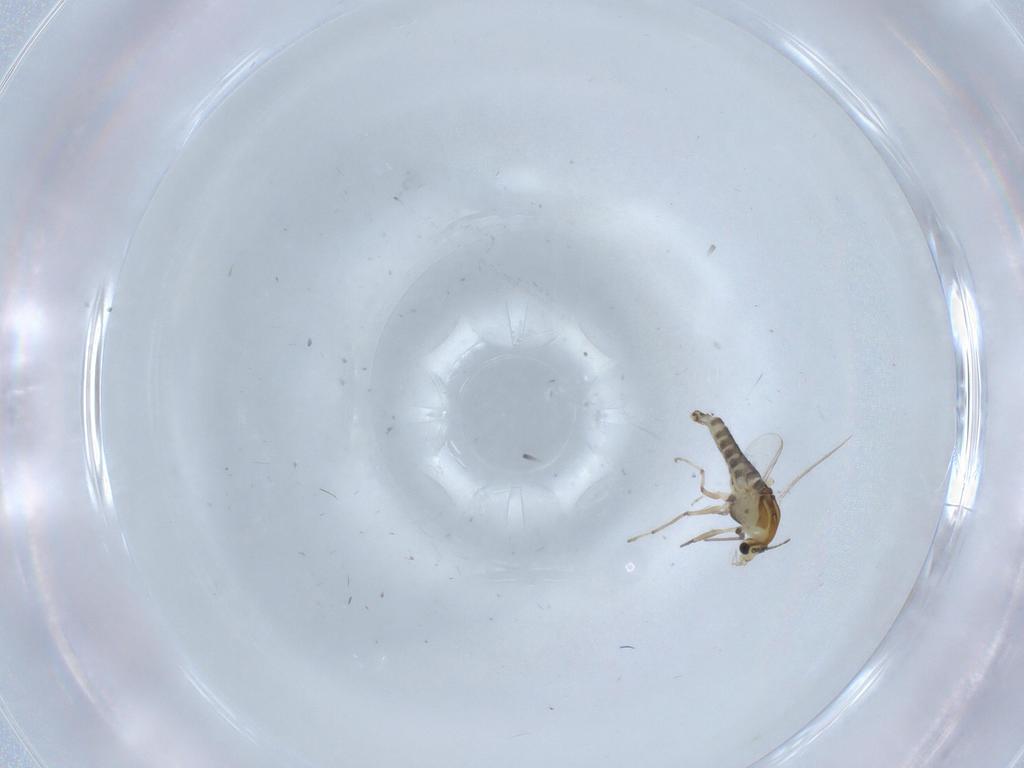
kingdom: Animalia
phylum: Arthropoda
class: Insecta
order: Diptera
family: Chironomidae
